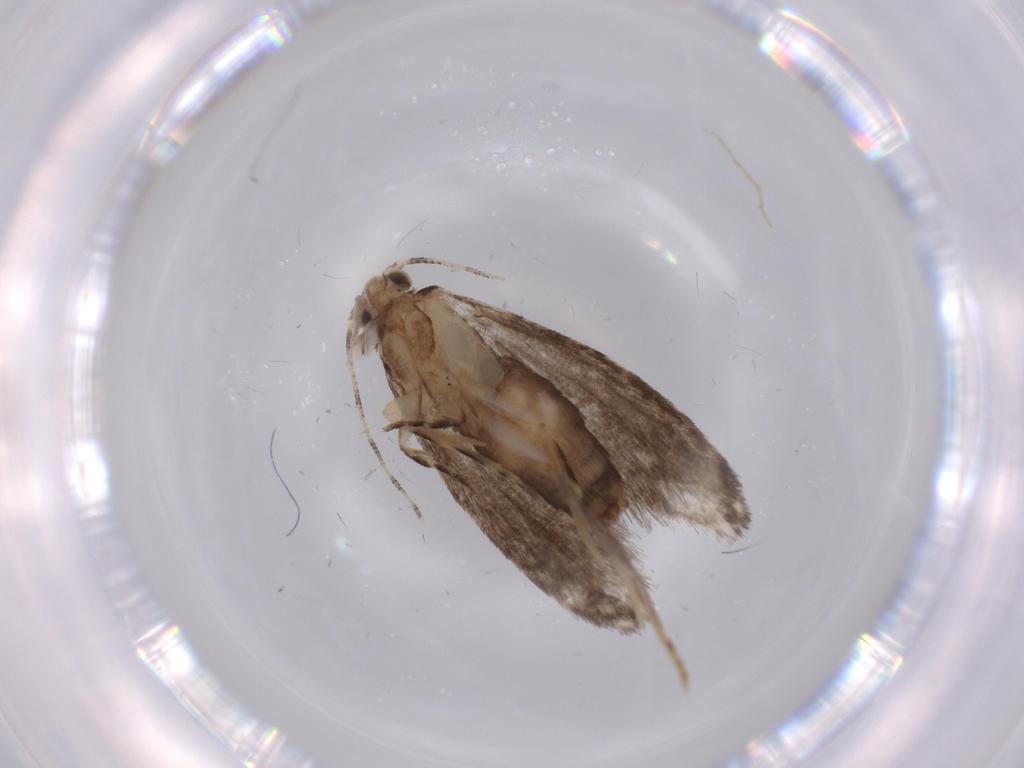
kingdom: Animalia
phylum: Arthropoda
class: Insecta
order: Lepidoptera
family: Tineidae
